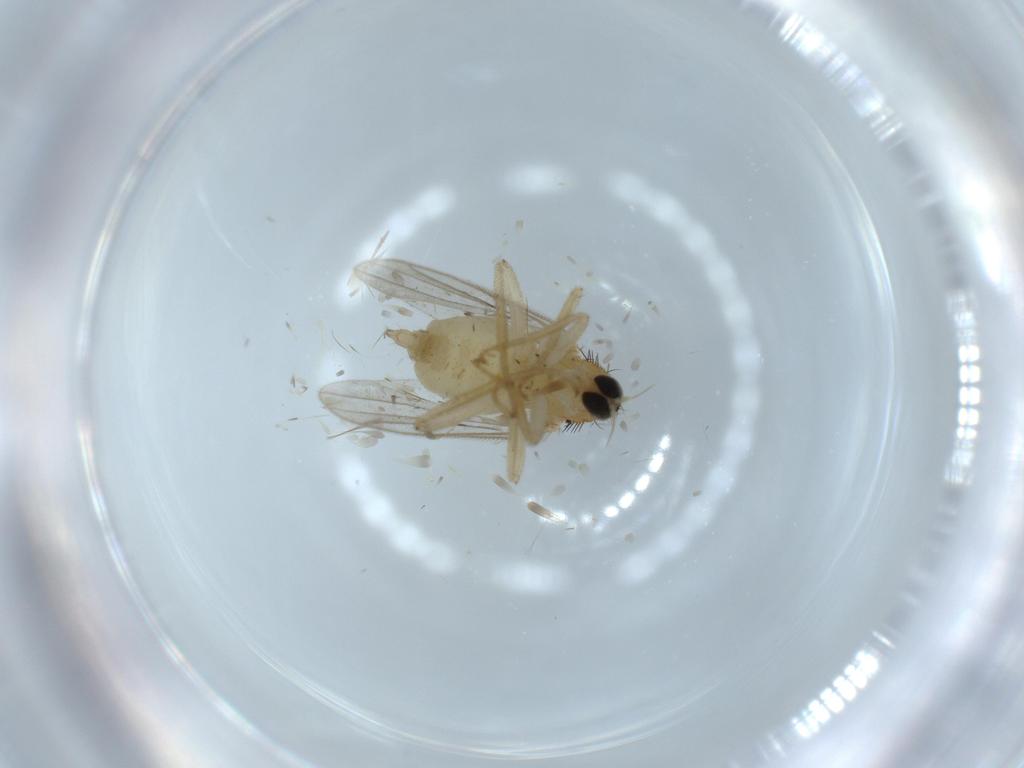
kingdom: Animalia
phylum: Arthropoda
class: Insecta
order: Diptera
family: Hybotidae
